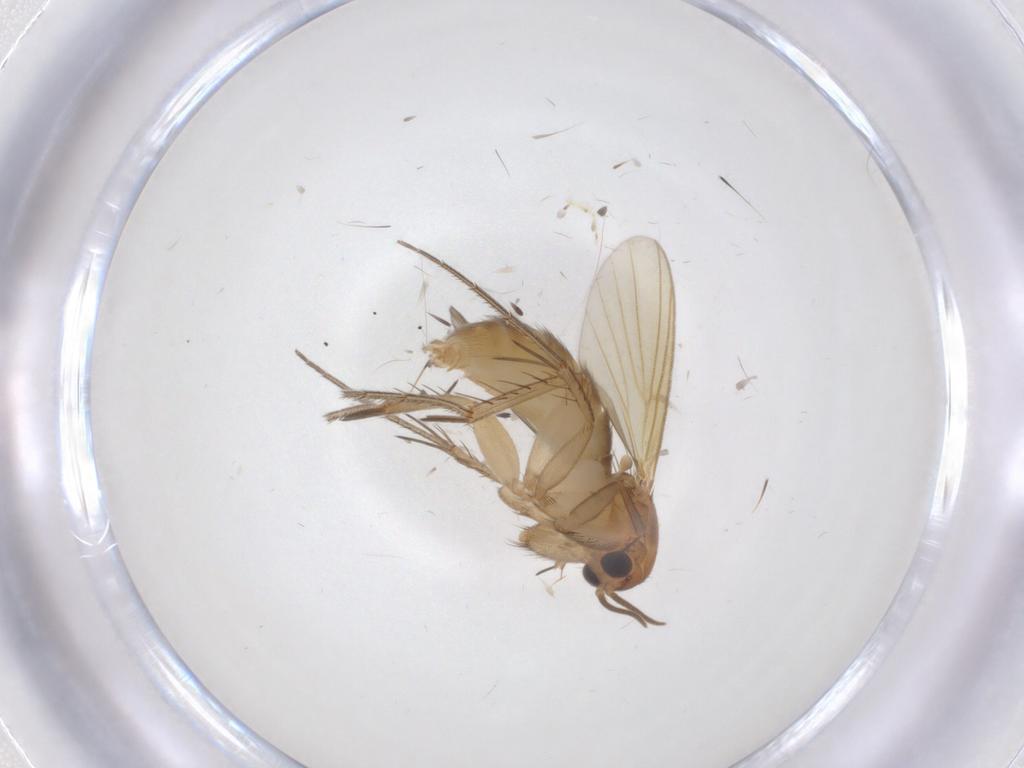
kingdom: Animalia
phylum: Arthropoda
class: Insecta
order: Diptera
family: Mycetophilidae
